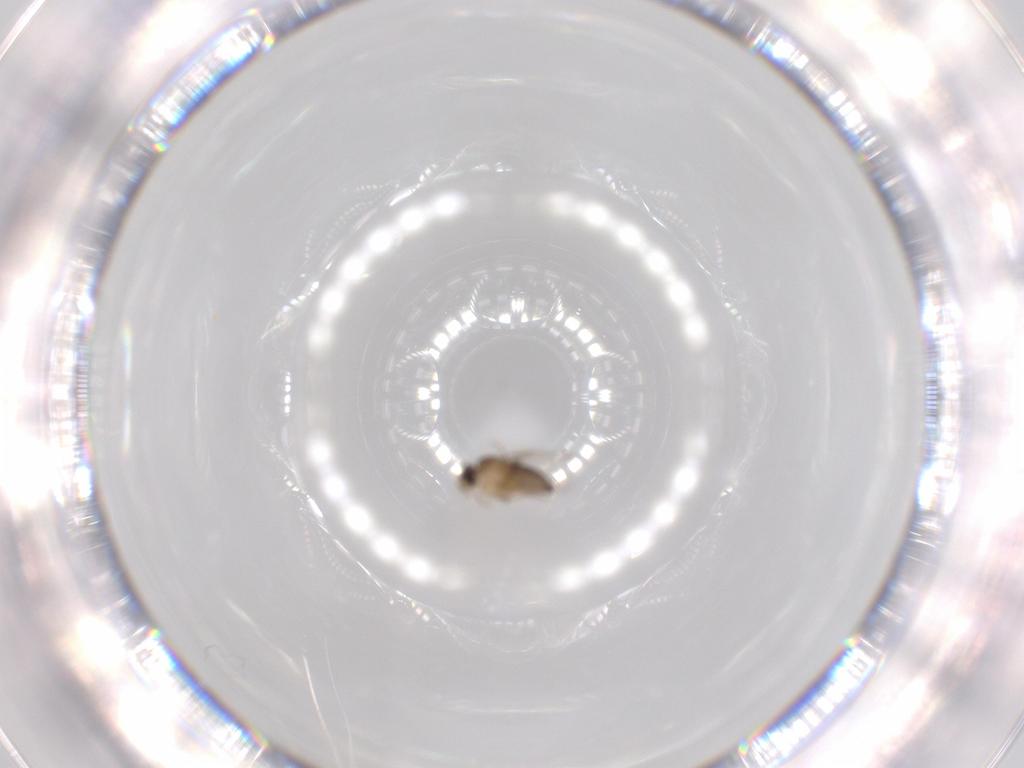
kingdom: Animalia
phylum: Arthropoda
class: Insecta
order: Diptera
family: Phoridae
